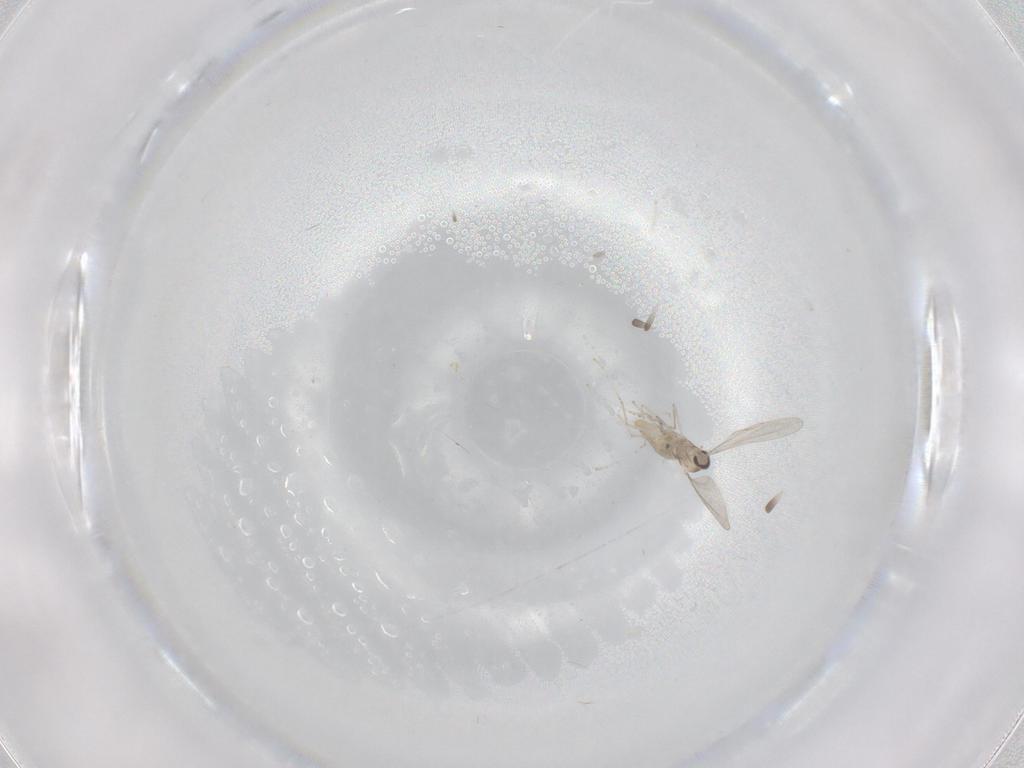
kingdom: Animalia
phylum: Arthropoda
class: Insecta
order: Diptera
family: Cecidomyiidae
